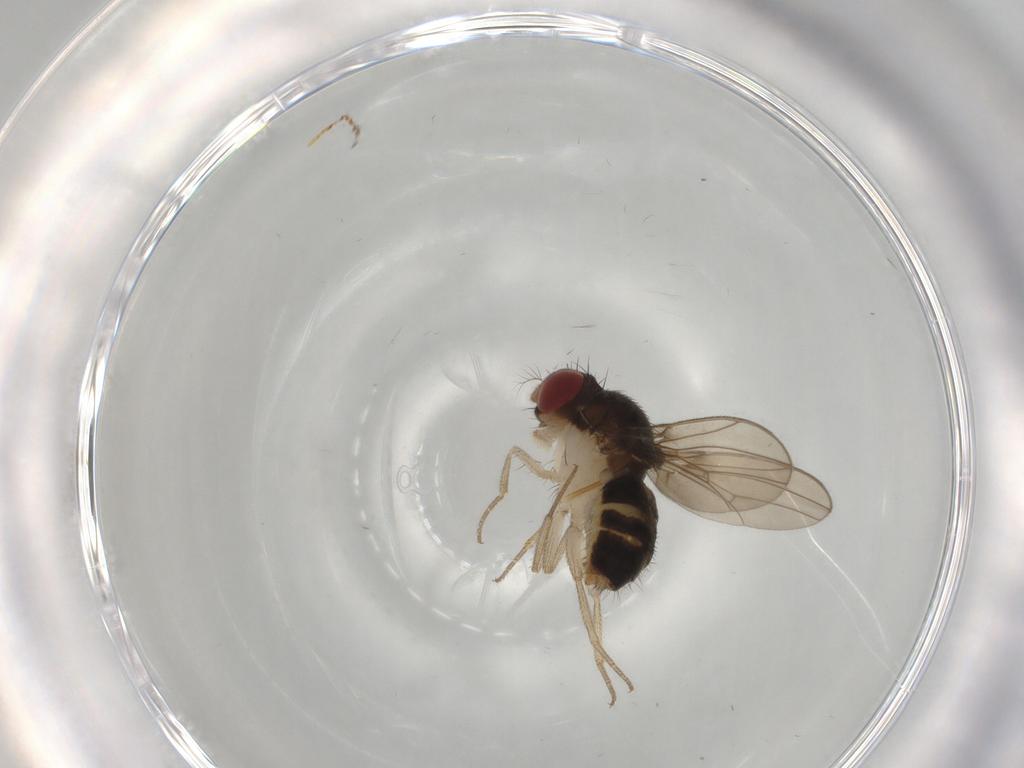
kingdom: Animalia
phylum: Arthropoda
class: Insecta
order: Diptera
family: Drosophilidae
